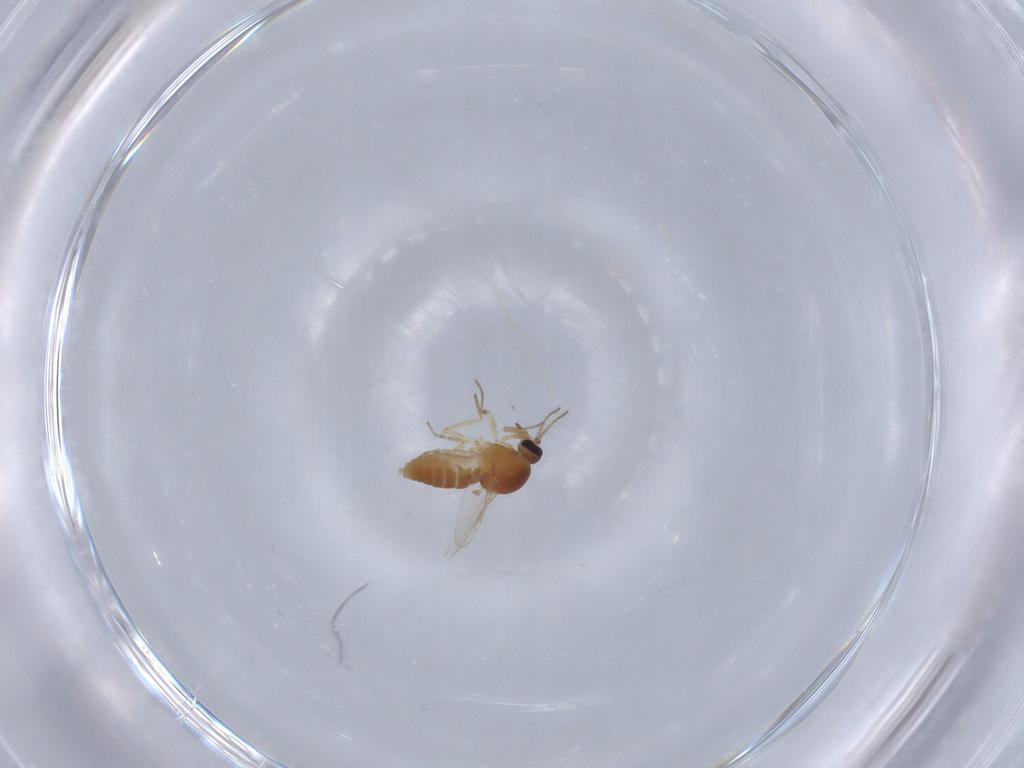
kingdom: Animalia
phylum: Arthropoda
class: Insecta
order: Diptera
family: Ceratopogonidae
